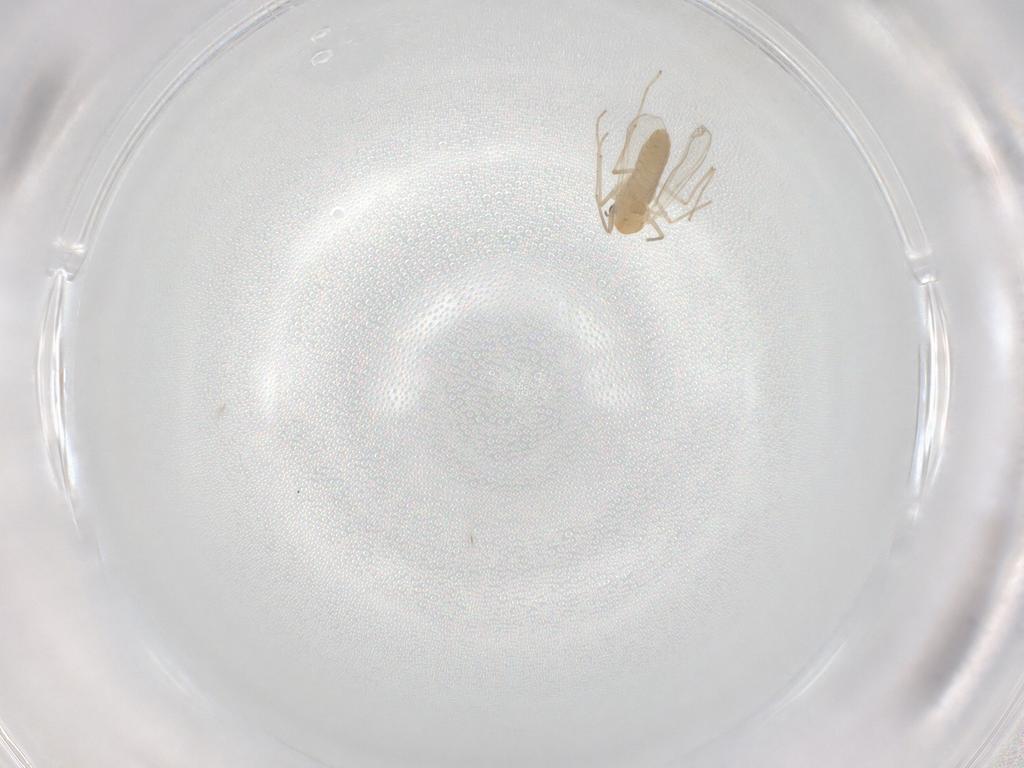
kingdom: Animalia
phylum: Arthropoda
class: Insecta
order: Diptera
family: Chironomidae
